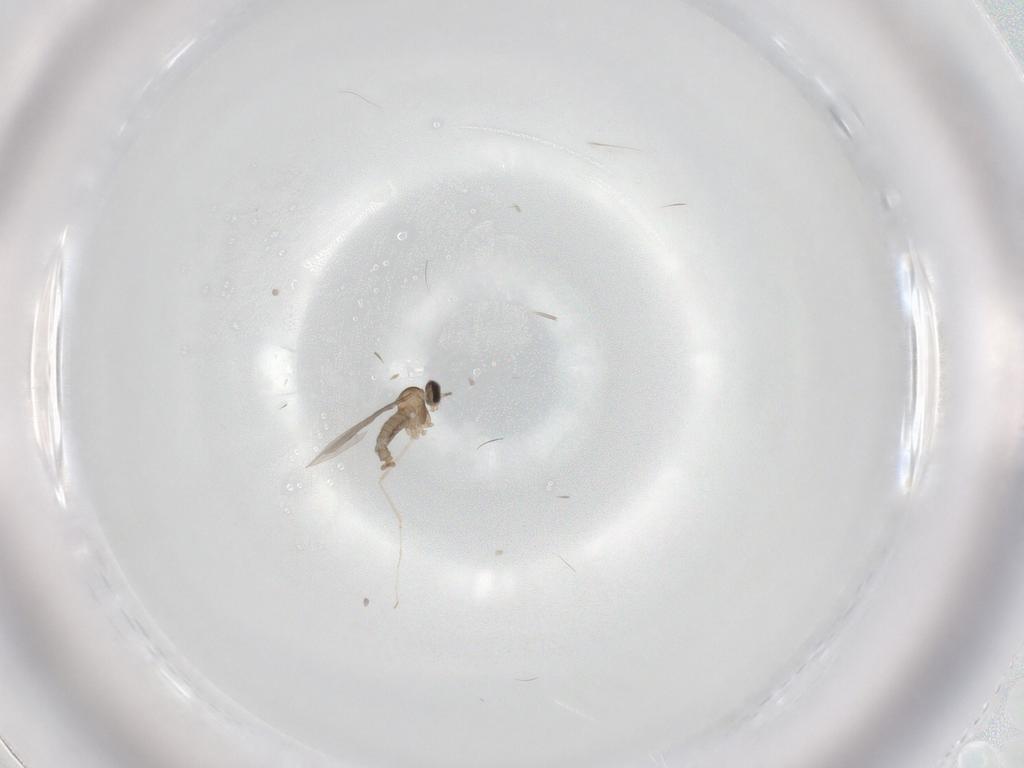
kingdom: Animalia
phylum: Arthropoda
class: Insecta
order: Diptera
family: Cecidomyiidae
